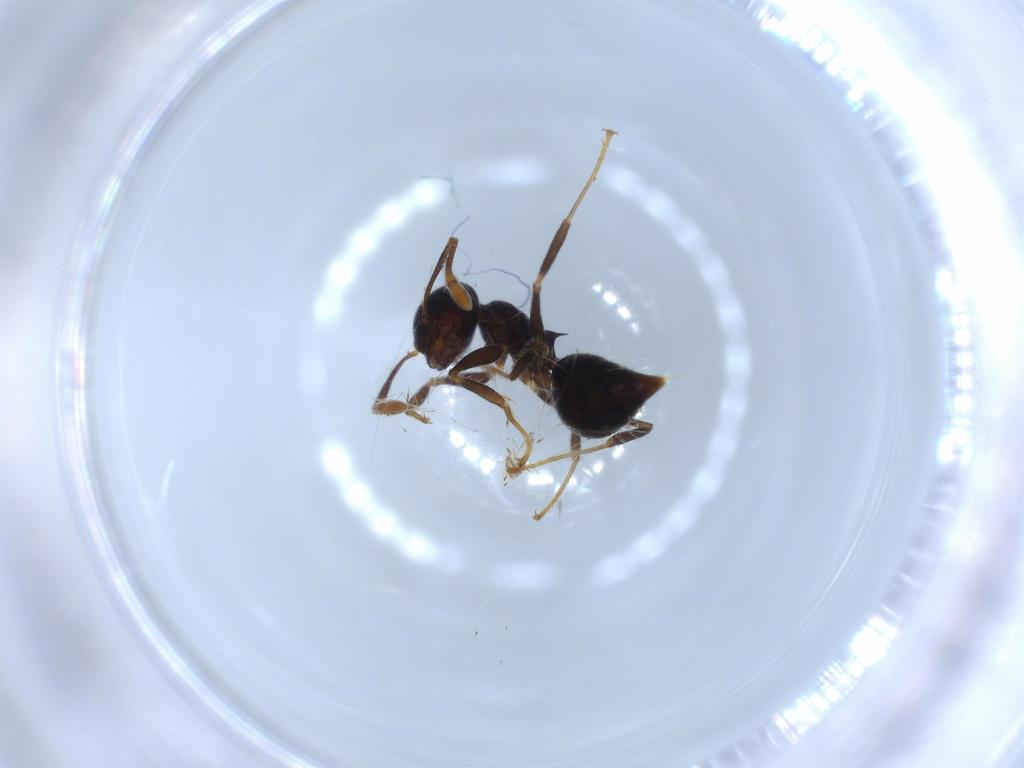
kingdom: Animalia
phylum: Arthropoda
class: Insecta
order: Hymenoptera
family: Formicidae
